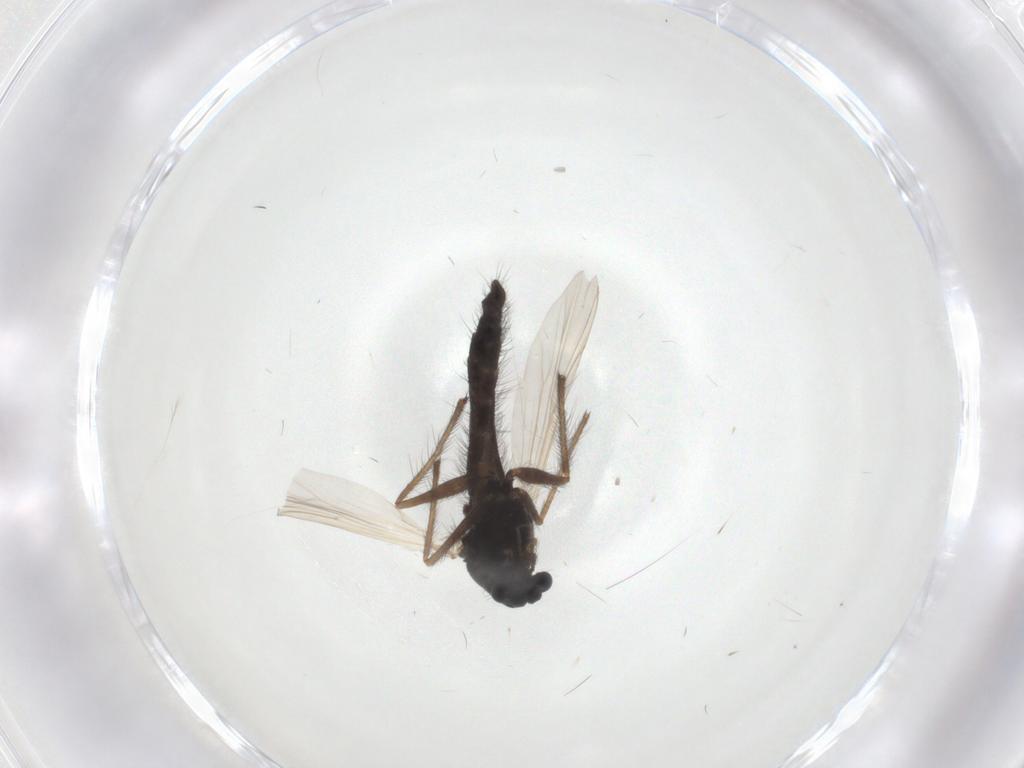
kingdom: Animalia
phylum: Arthropoda
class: Insecta
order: Diptera
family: Chironomidae
